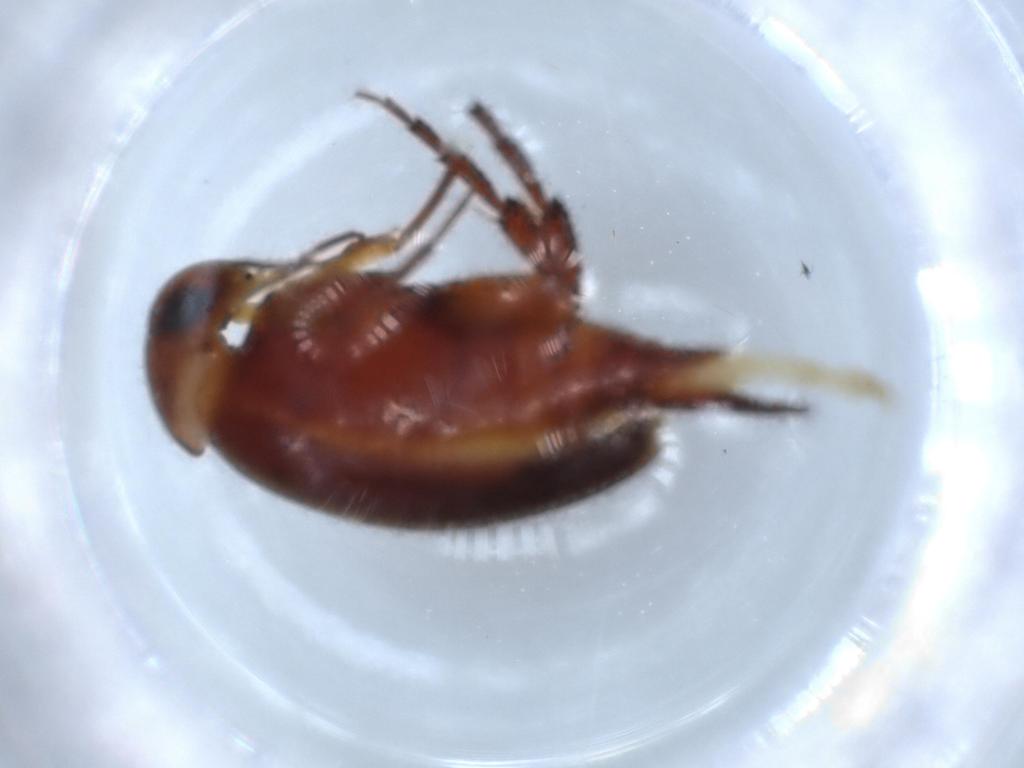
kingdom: Animalia
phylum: Arthropoda
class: Insecta
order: Coleoptera
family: Mordellidae
